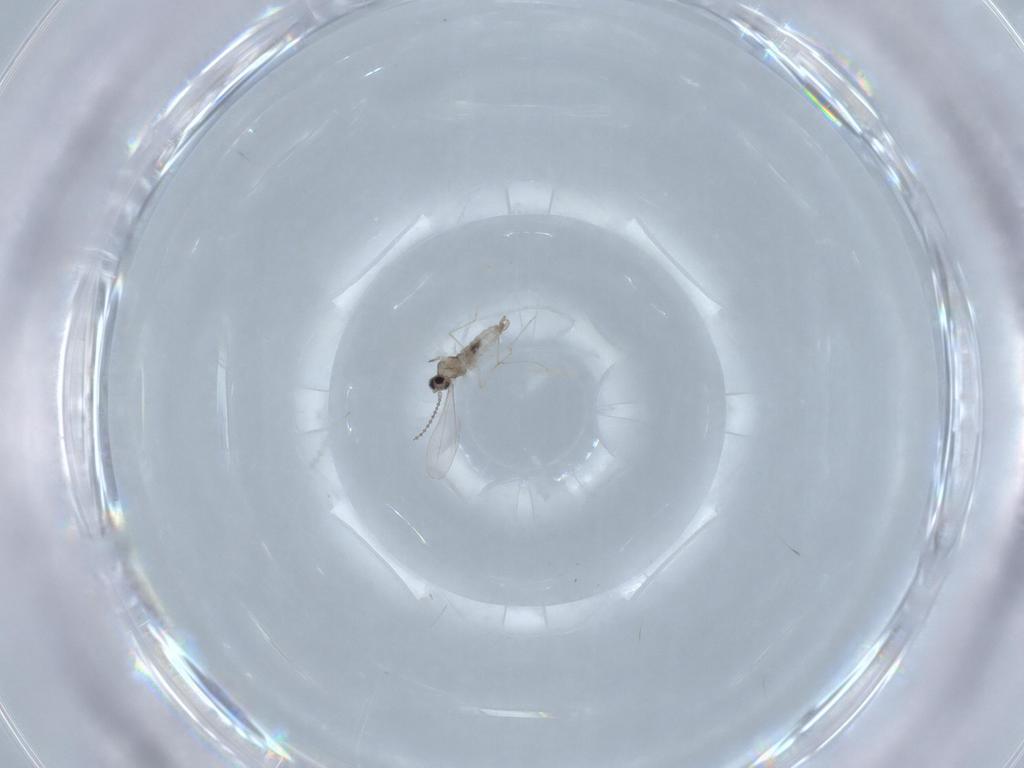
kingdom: Animalia
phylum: Arthropoda
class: Insecta
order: Diptera
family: Cecidomyiidae
